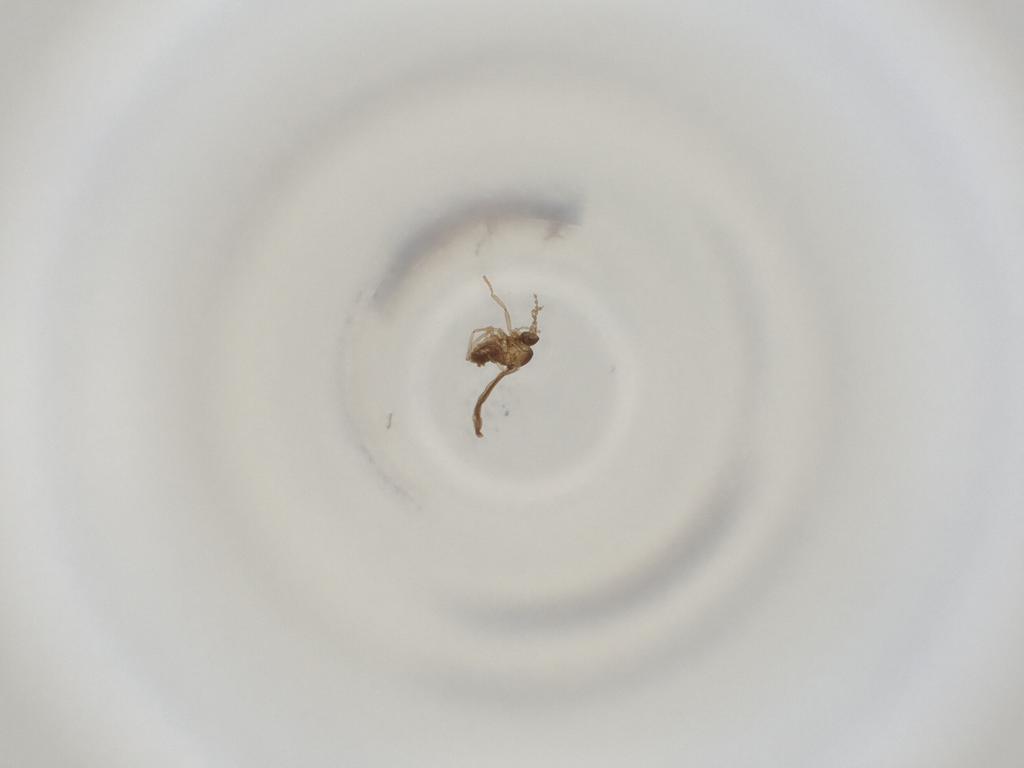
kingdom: Animalia
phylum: Arthropoda
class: Insecta
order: Diptera
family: Cecidomyiidae
